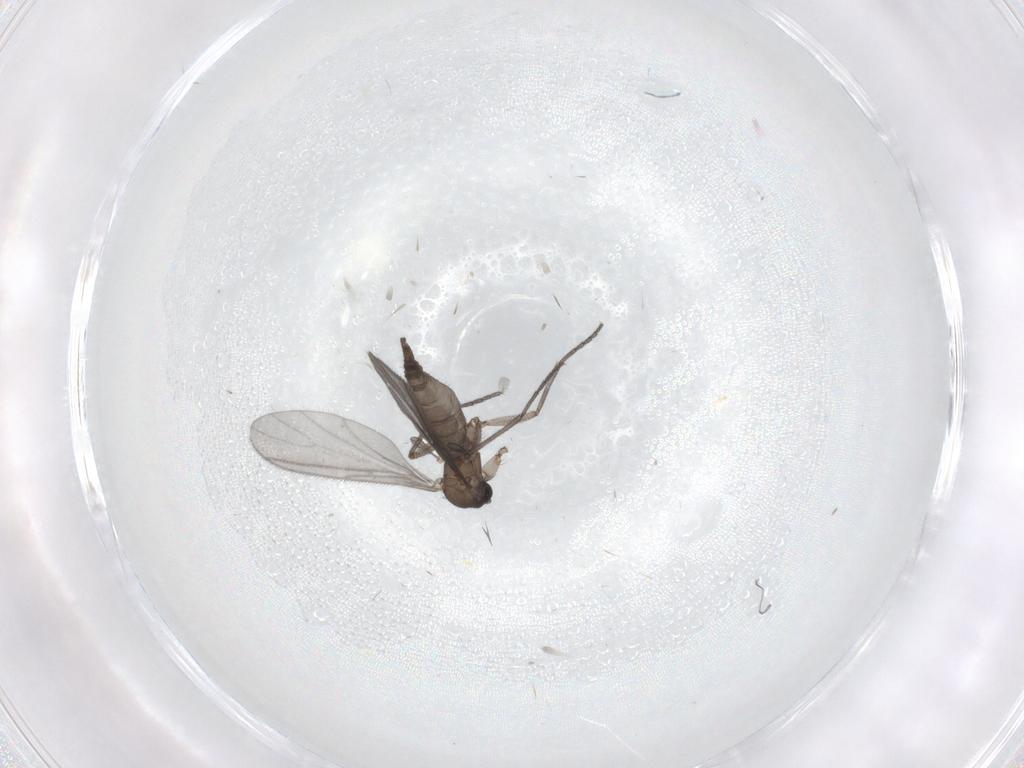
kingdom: Animalia
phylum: Arthropoda
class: Insecta
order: Diptera
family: Sciaridae
